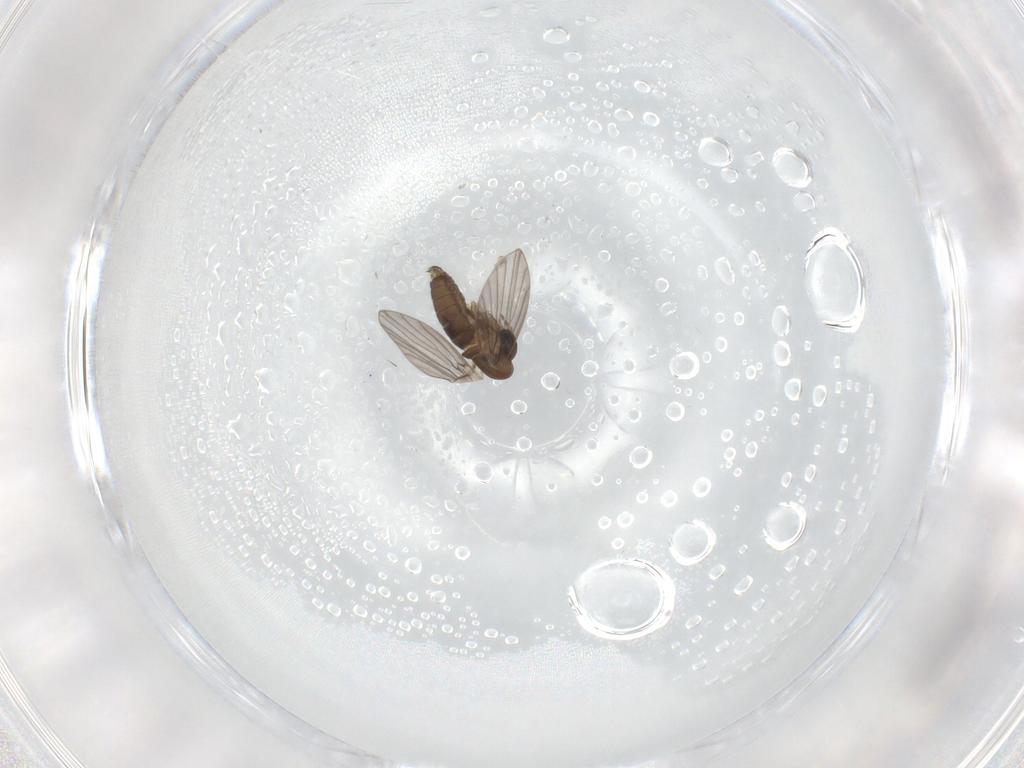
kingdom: Animalia
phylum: Arthropoda
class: Insecta
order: Diptera
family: Psychodidae
